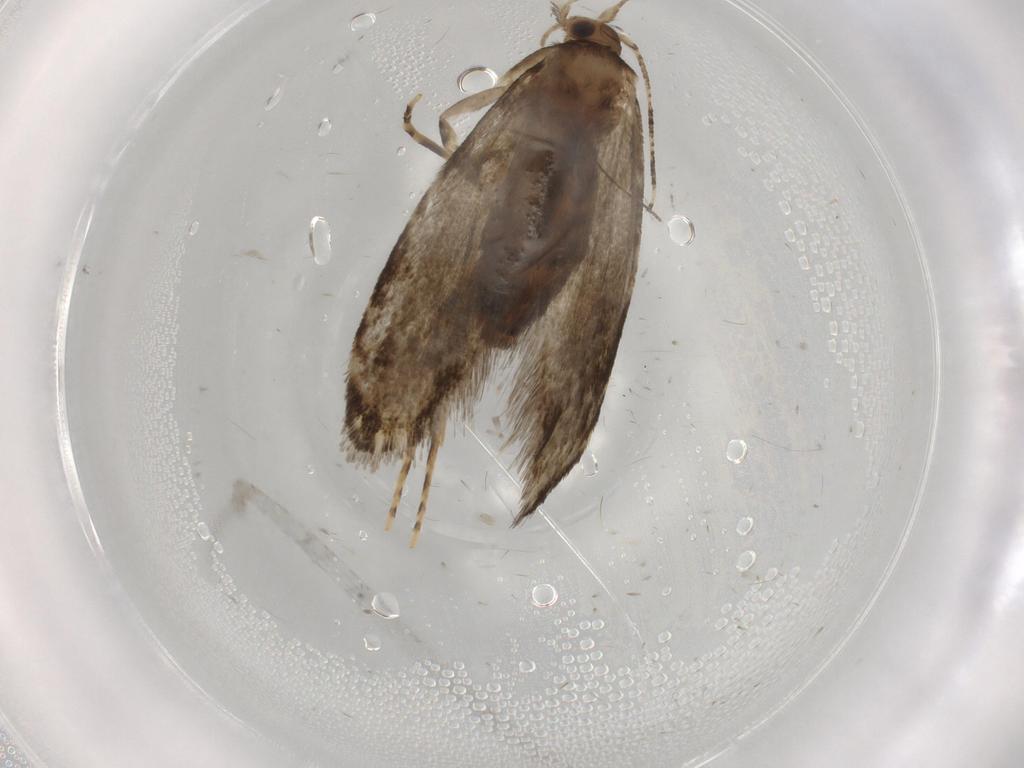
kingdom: Animalia
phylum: Arthropoda
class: Insecta
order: Lepidoptera
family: Tineidae
